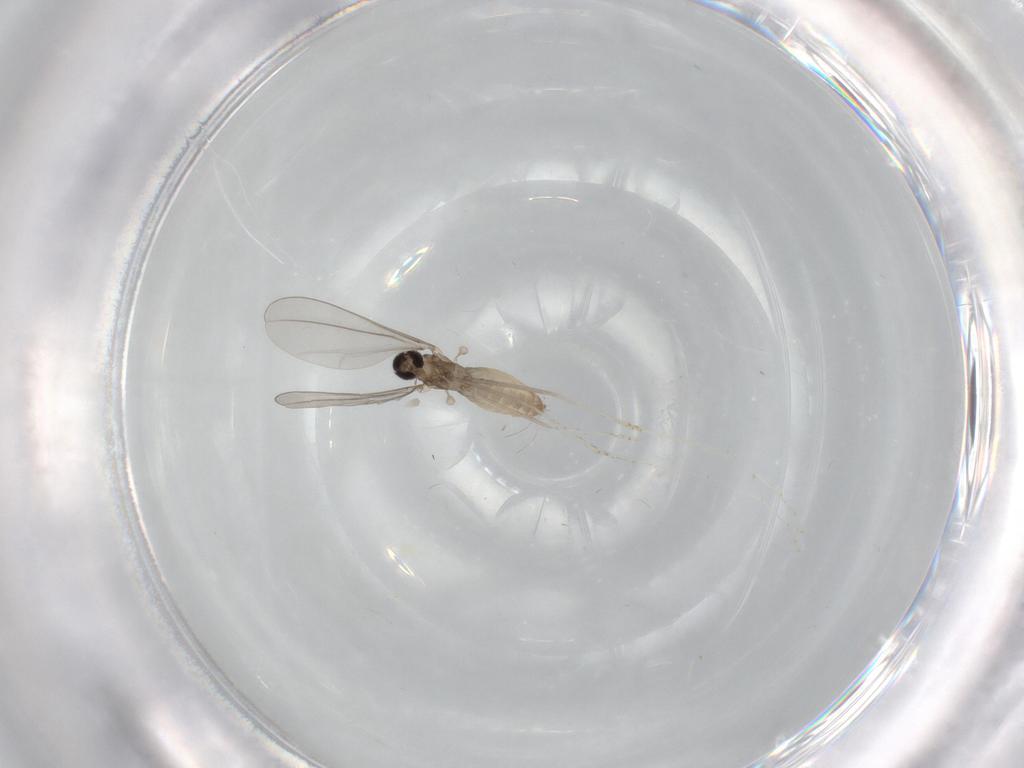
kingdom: Animalia
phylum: Arthropoda
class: Insecta
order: Diptera
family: Cecidomyiidae
